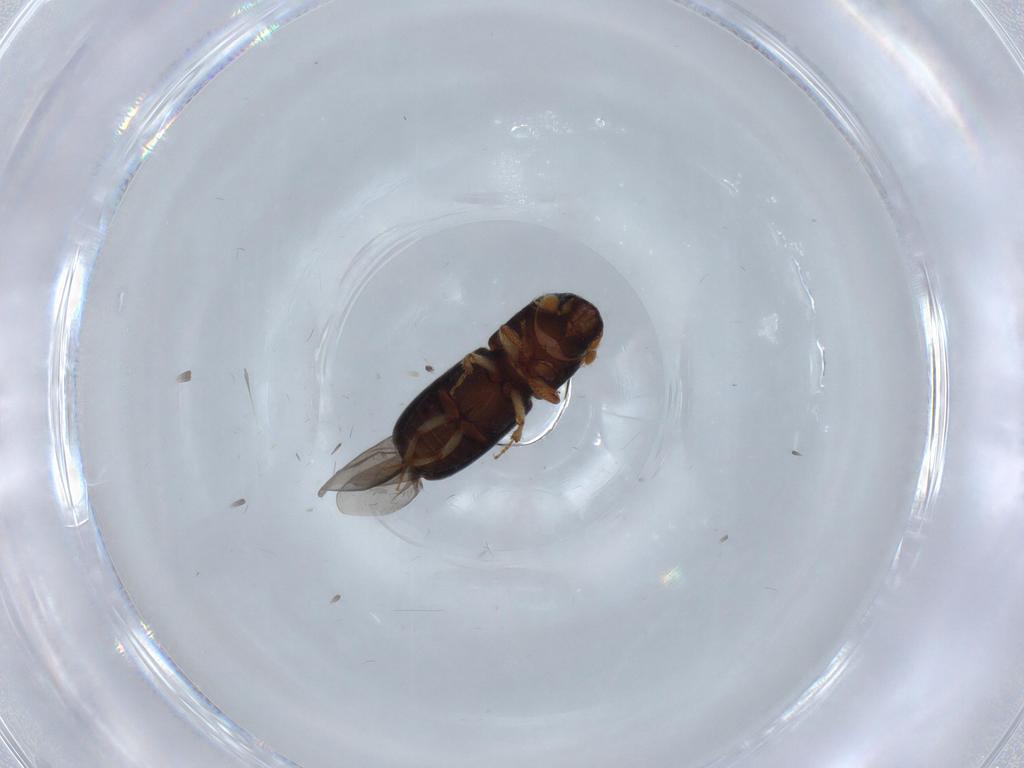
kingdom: Animalia
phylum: Arthropoda
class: Insecta
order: Coleoptera
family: Curculionidae
